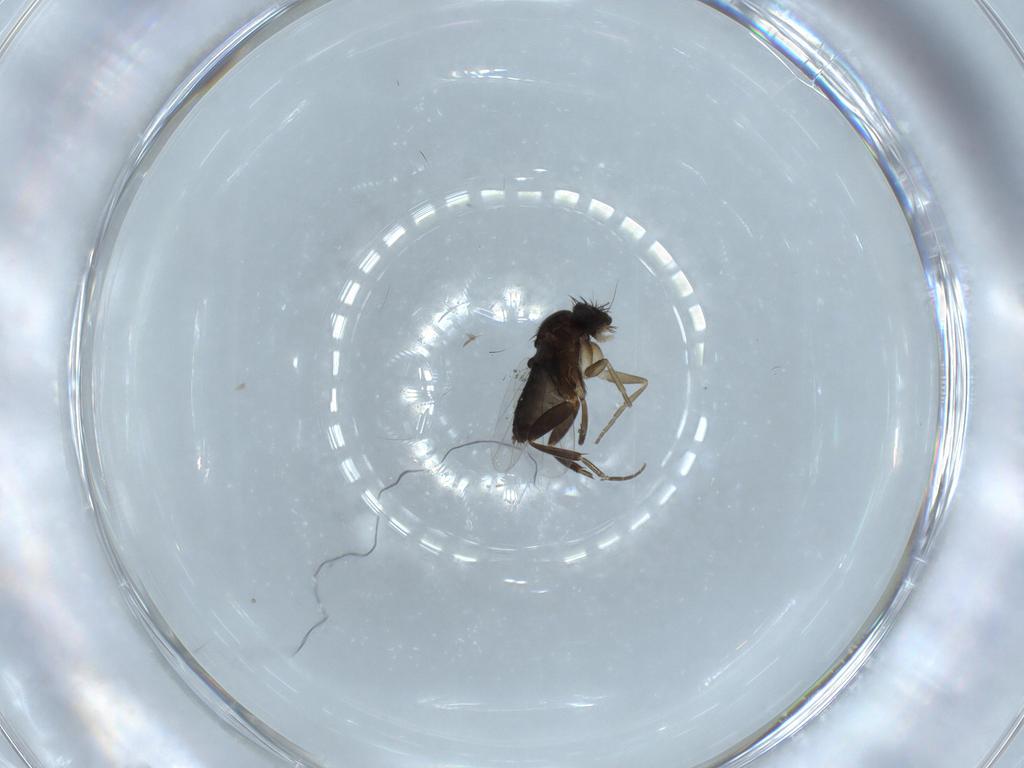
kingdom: Animalia
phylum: Arthropoda
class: Insecta
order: Diptera
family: Phoridae
